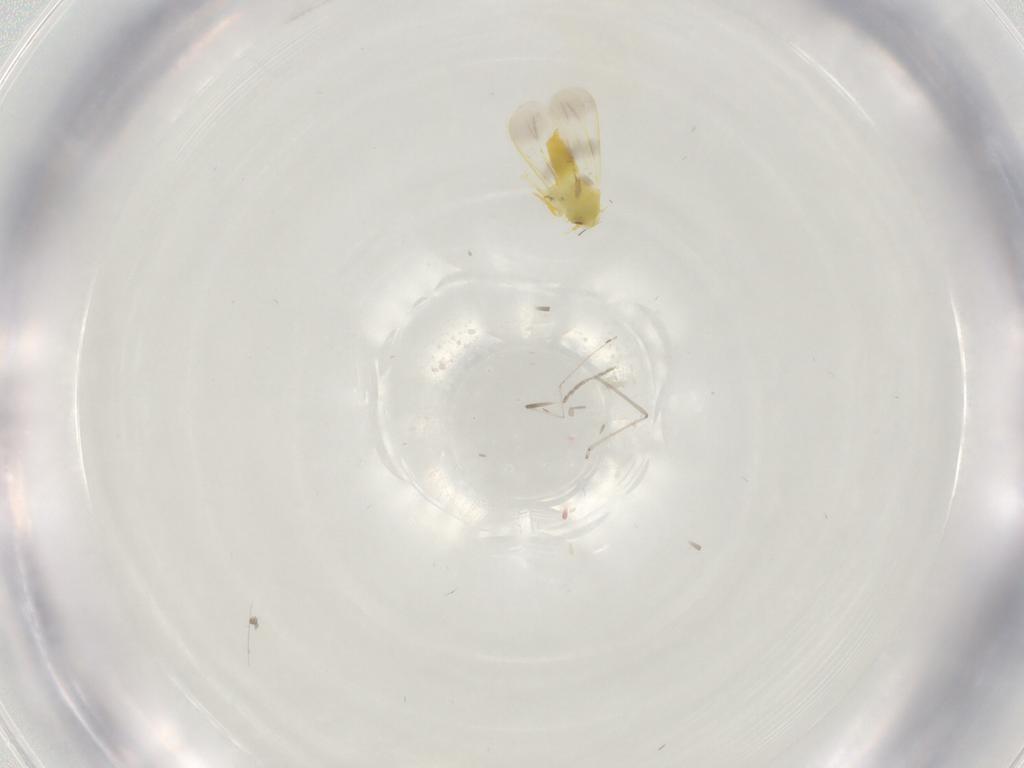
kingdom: Animalia
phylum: Arthropoda
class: Insecta
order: Hemiptera
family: Aleyrodidae
